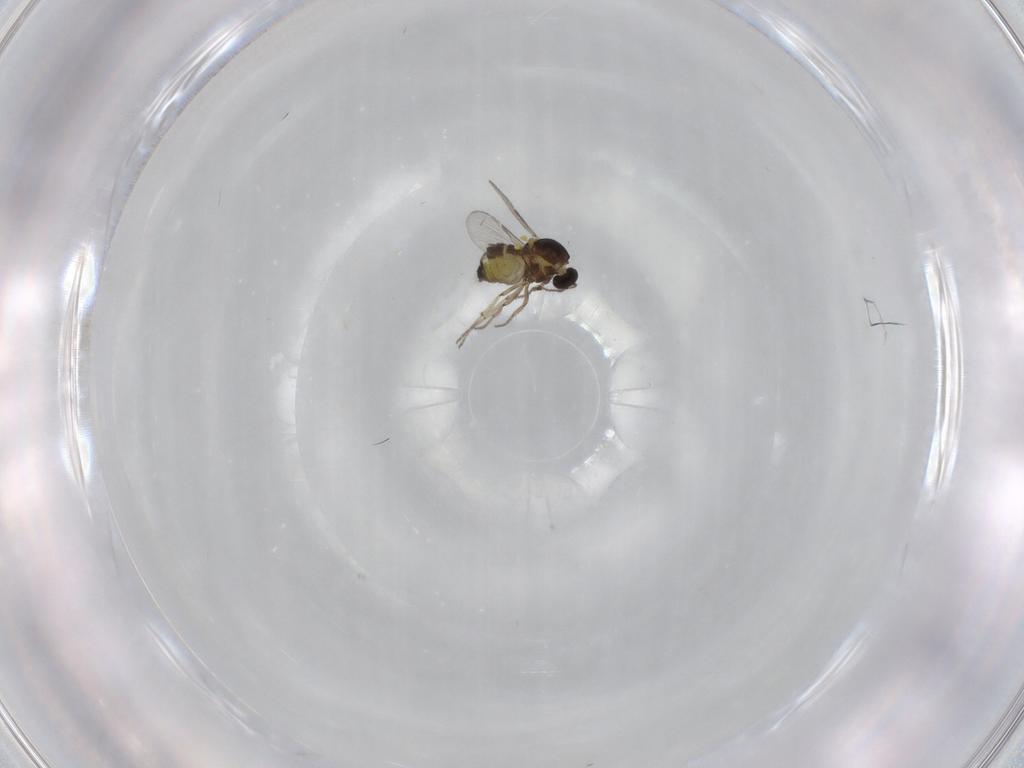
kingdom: Animalia
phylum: Arthropoda
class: Insecta
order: Diptera
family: Ceratopogonidae
